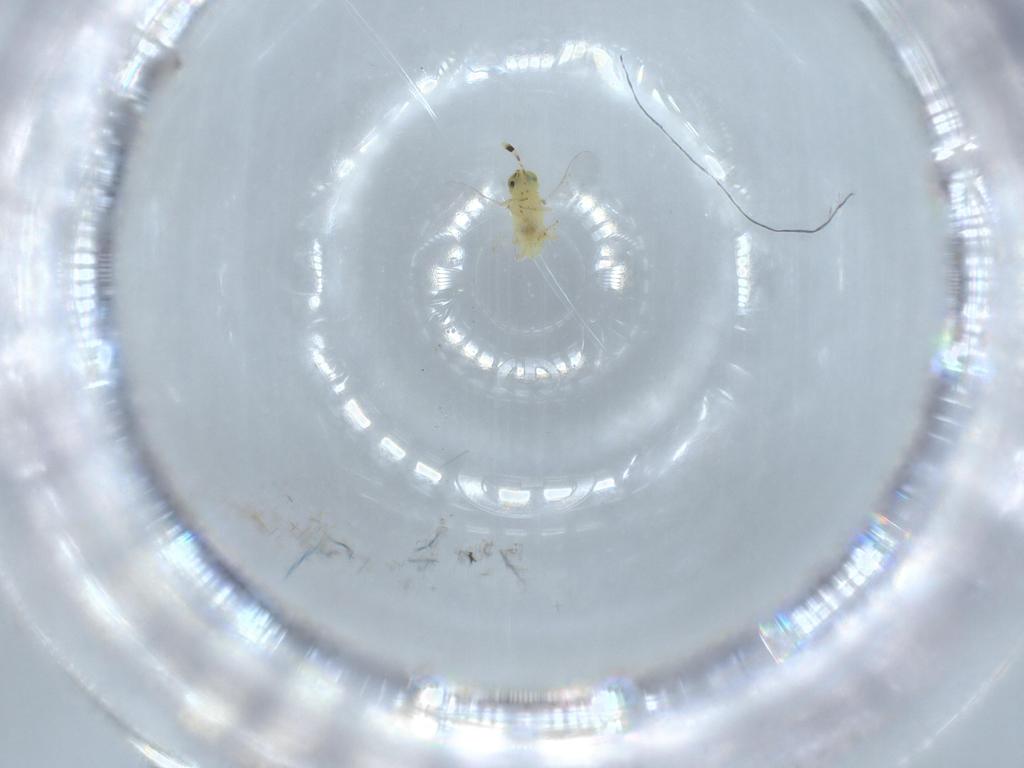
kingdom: Animalia
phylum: Arthropoda
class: Insecta
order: Hymenoptera
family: Encyrtidae
